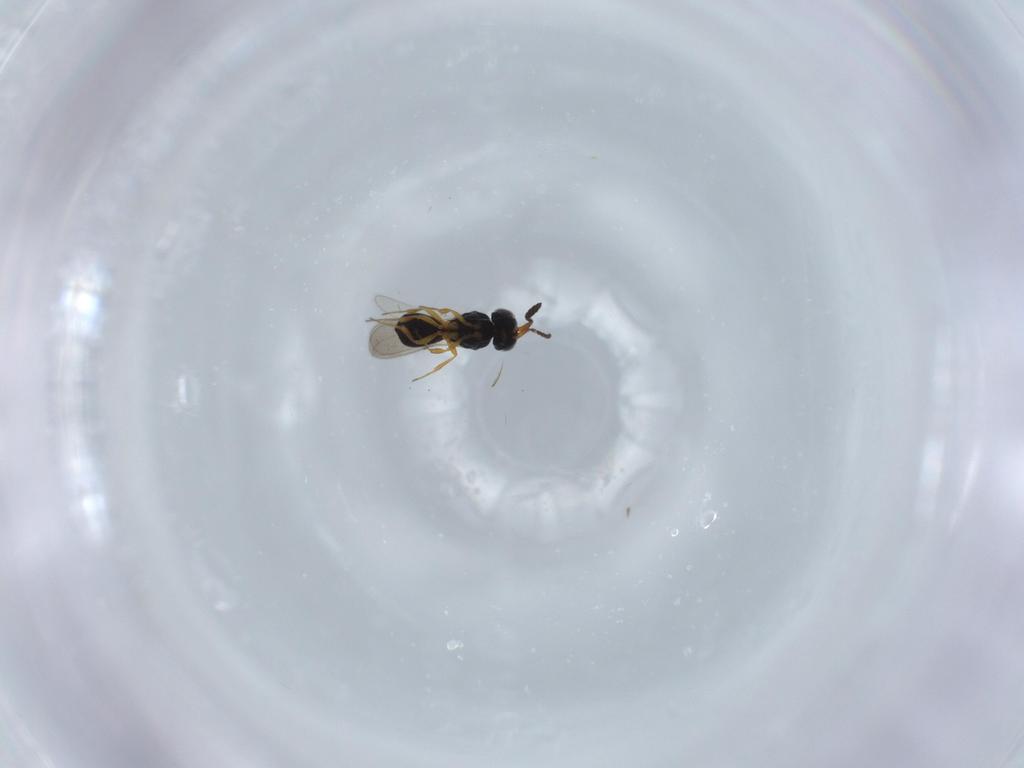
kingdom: Animalia
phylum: Arthropoda
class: Insecta
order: Hymenoptera
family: Scelionidae
